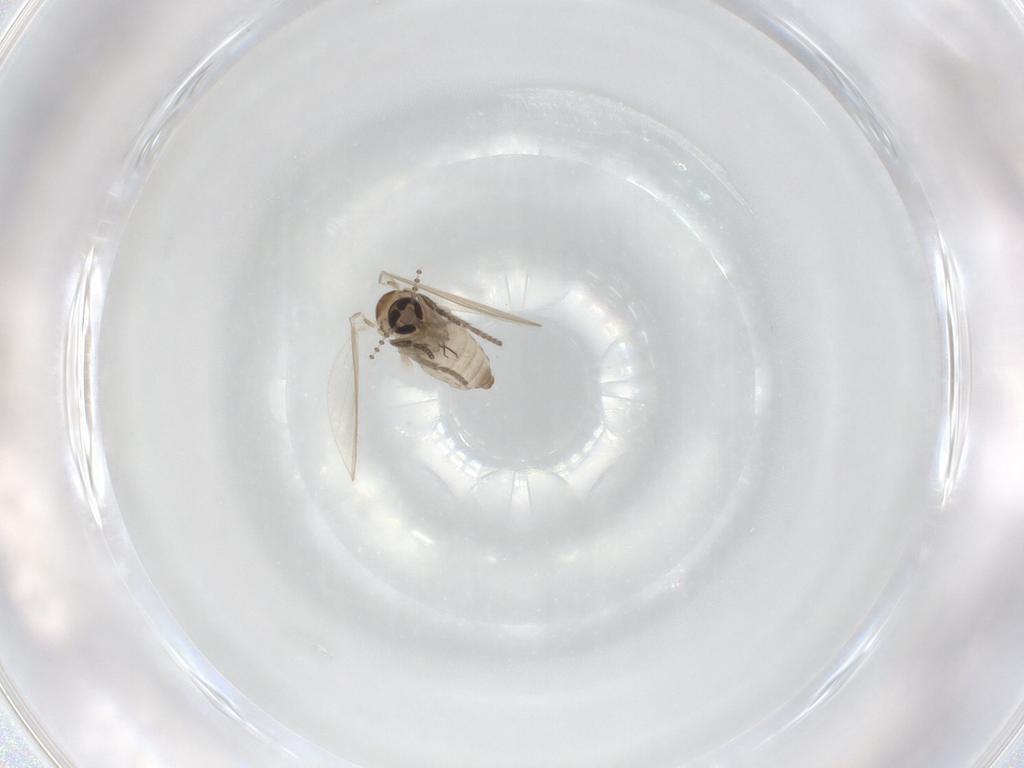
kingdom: Animalia
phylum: Arthropoda
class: Insecta
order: Diptera
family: Psychodidae
